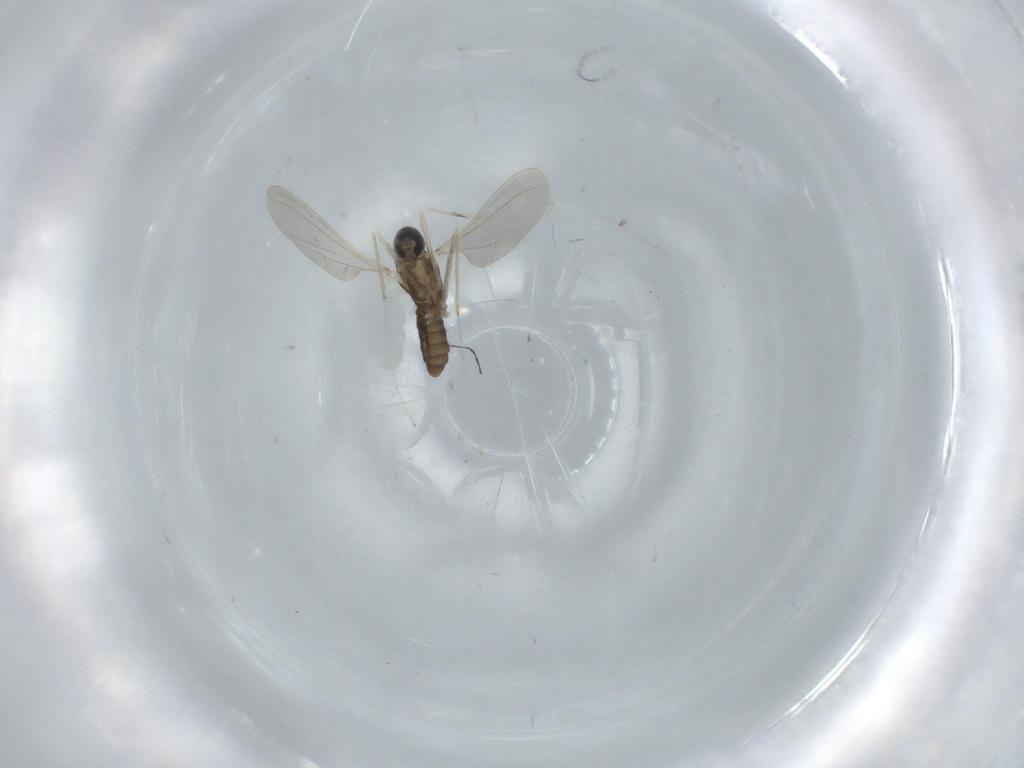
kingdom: Animalia
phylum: Arthropoda
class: Insecta
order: Diptera
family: Cecidomyiidae
